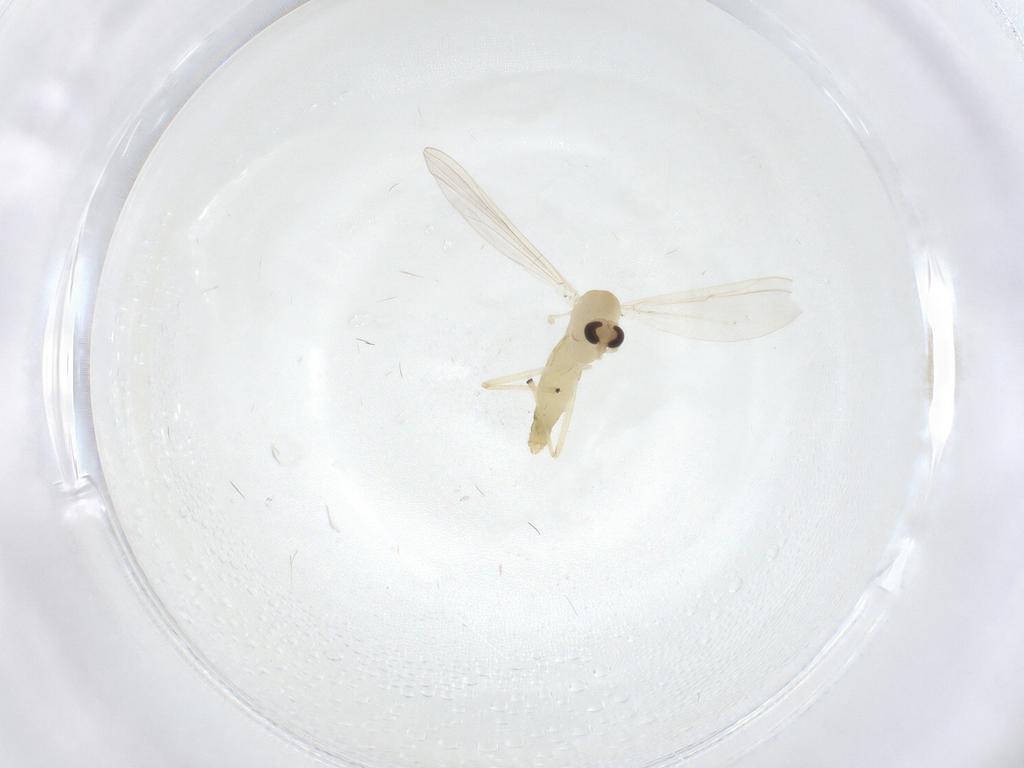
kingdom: Animalia
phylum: Arthropoda
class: Insecta
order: Diptera
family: Chironomidae
